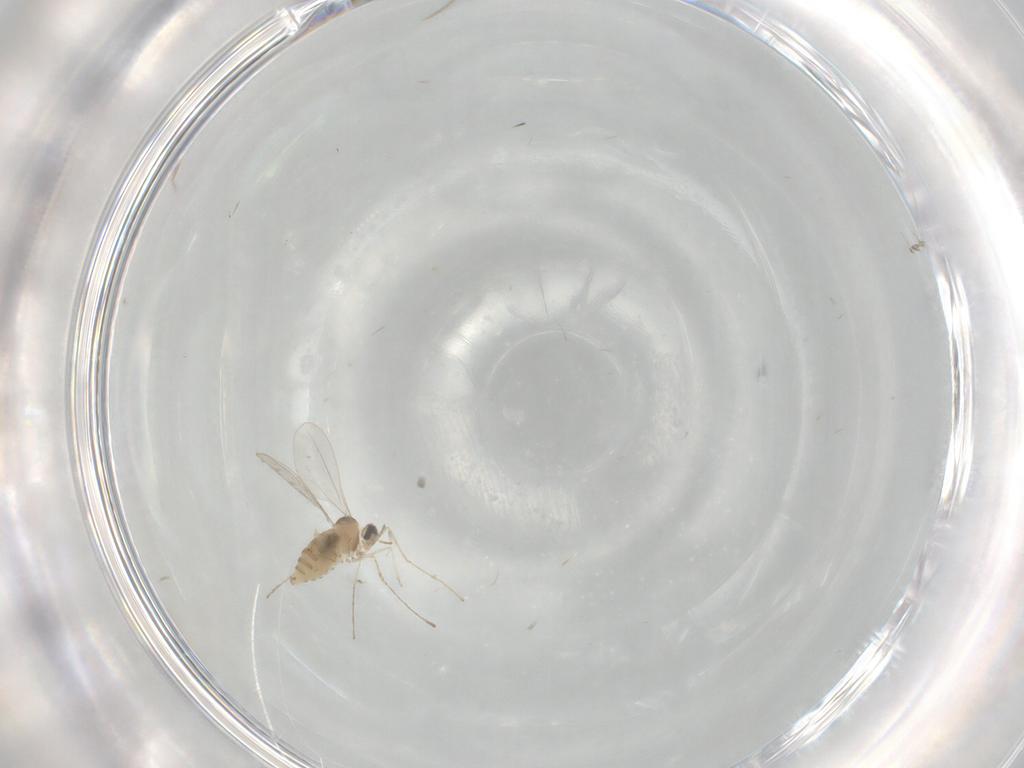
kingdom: Animalia
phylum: Arthropoda
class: Insecta
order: Diptera
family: Cecidomyiidae
